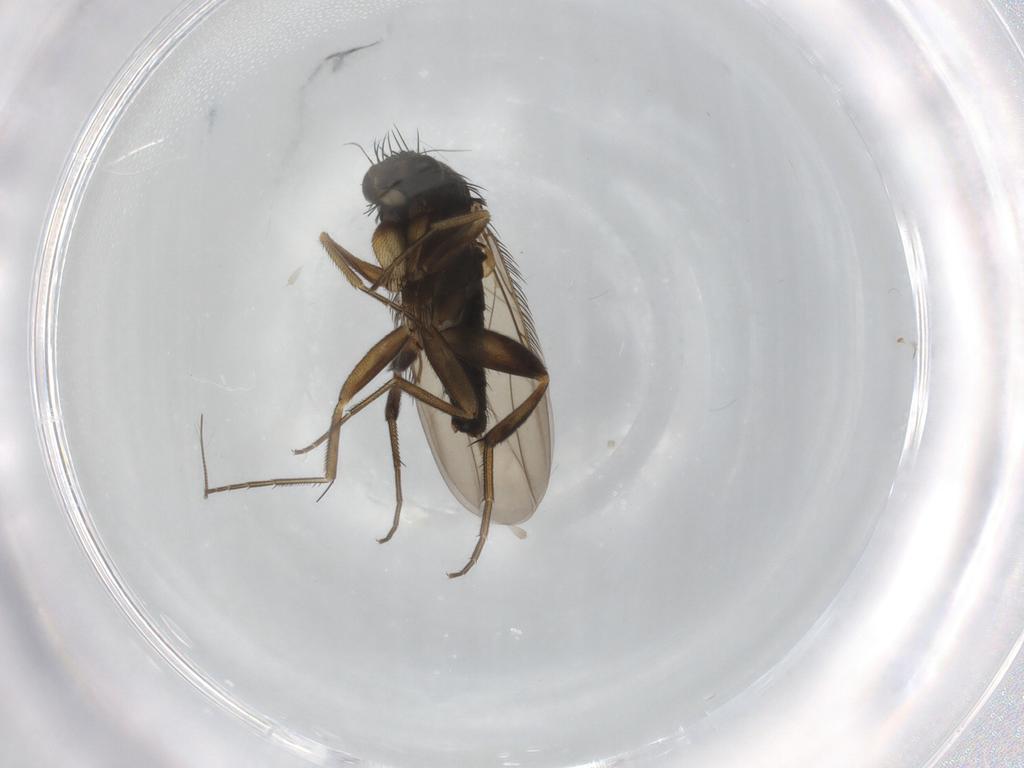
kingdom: Animalia
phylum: Arthropoda
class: Insecta
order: Diptera
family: Phoridae
